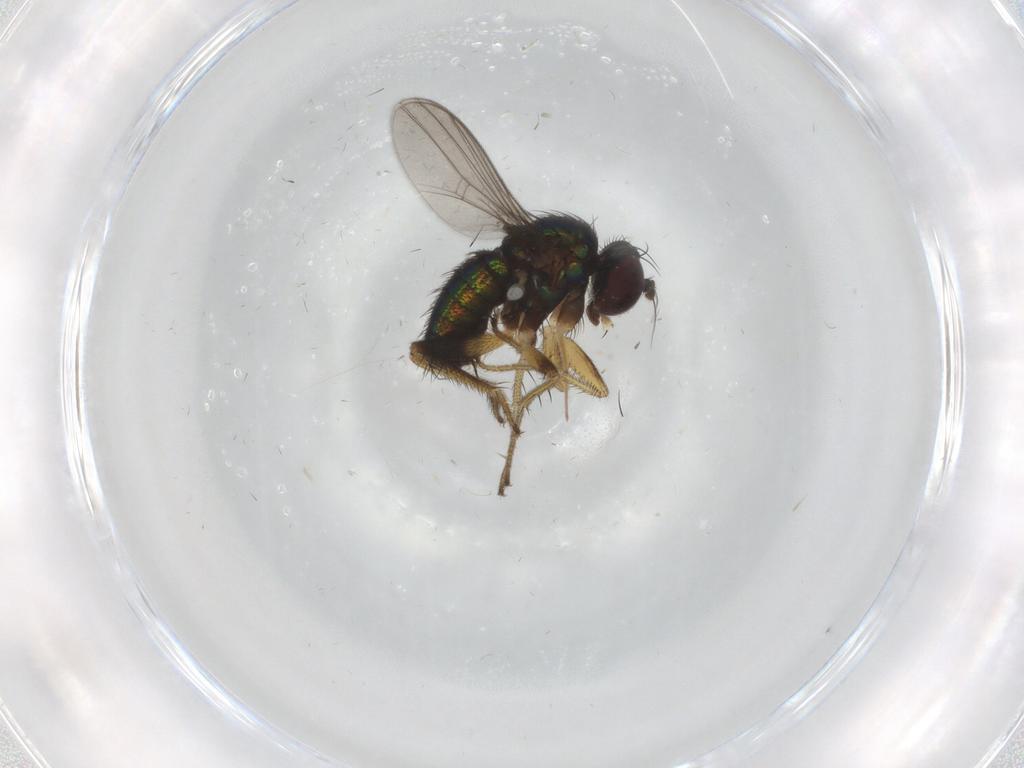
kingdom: Animalia
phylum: Arthropoda
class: Insecta
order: Diptera
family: Dolichopodidae
